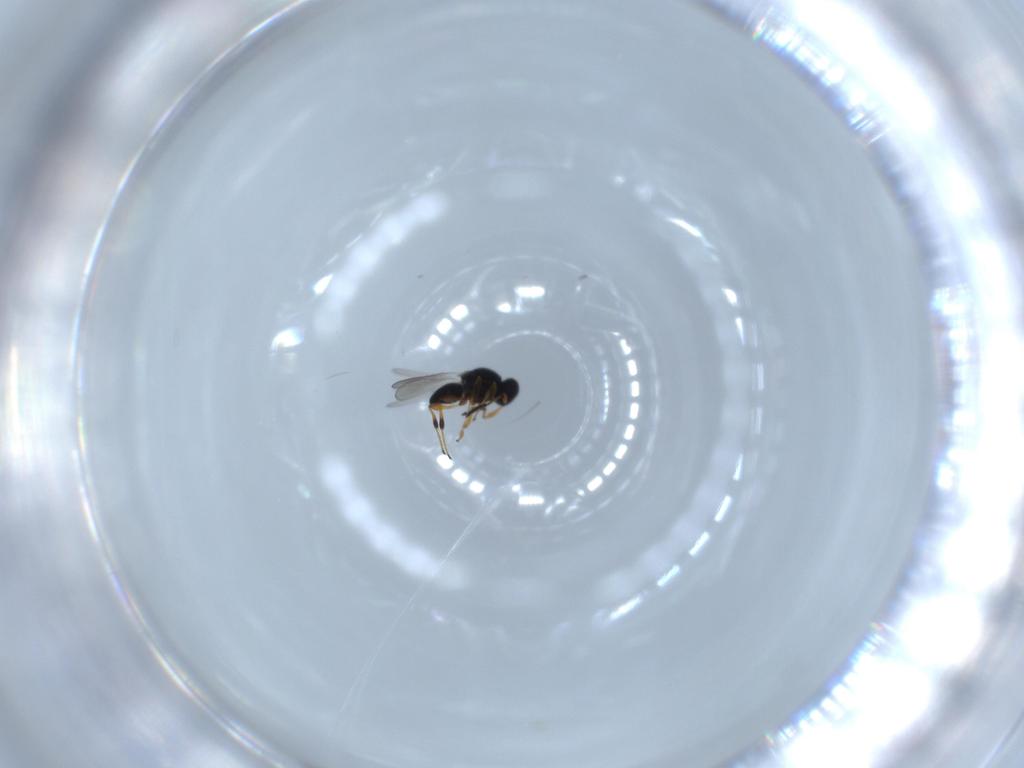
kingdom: Animalia
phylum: Arthropoda
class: Insecta
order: Hymenoptera
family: Platygastridae
